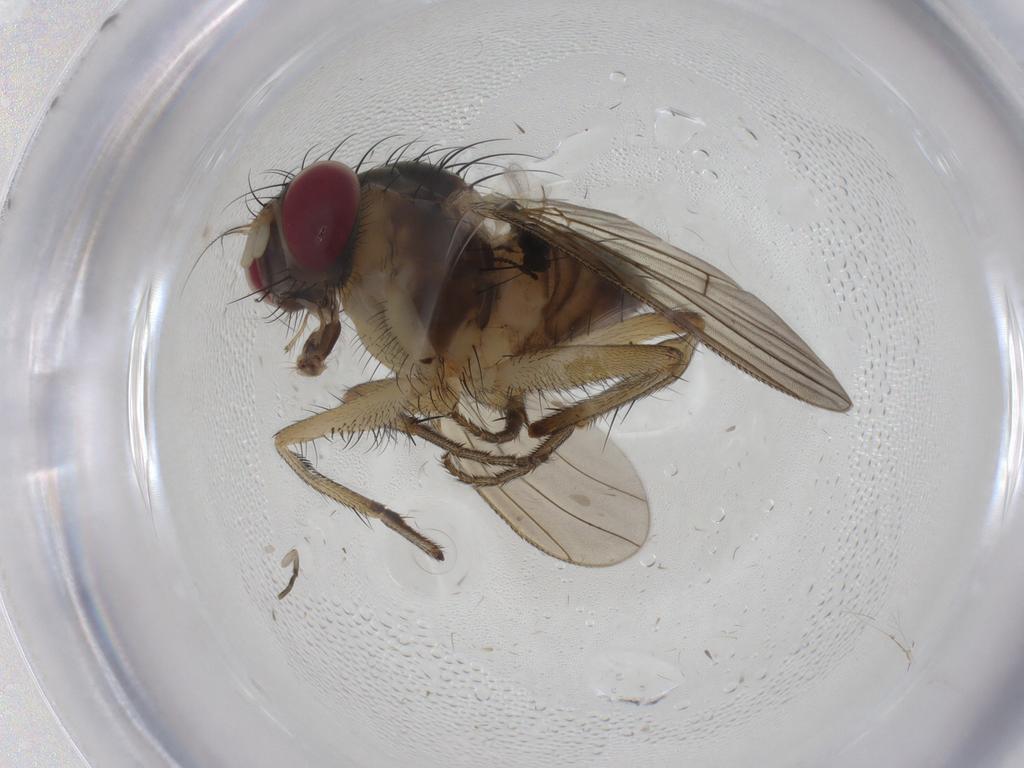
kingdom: Animalia
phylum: Arthropoda
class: Insecta
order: Diptera
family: Muscidae
